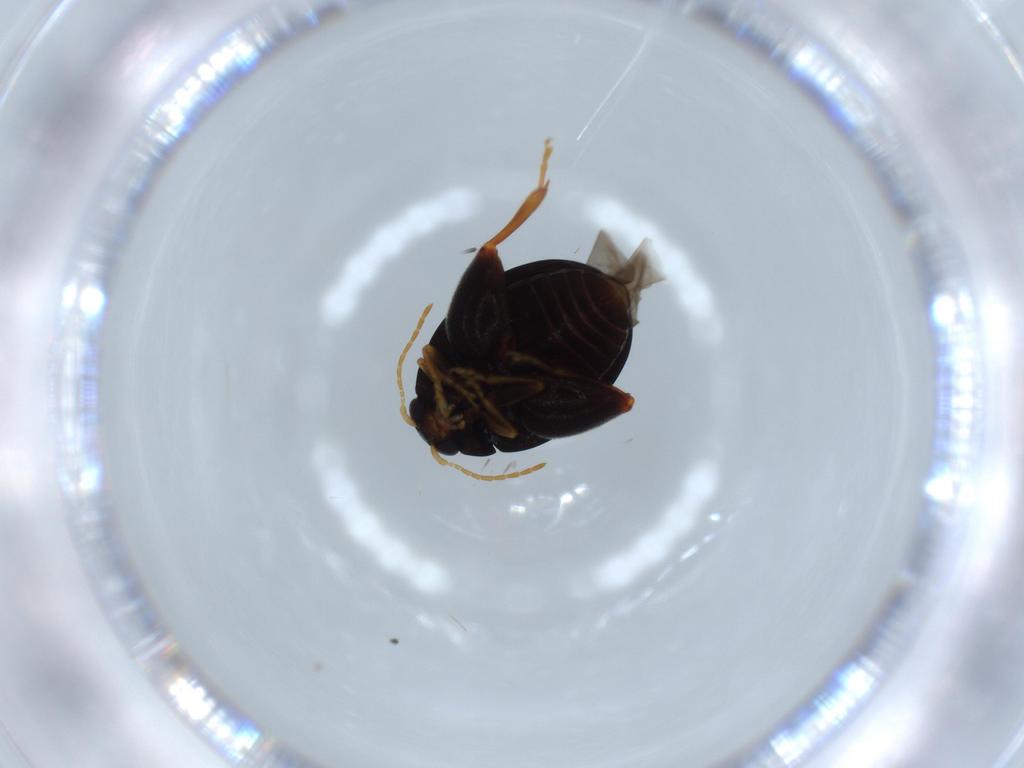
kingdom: Animalia
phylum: Arthropoda
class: Insecta
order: Coleoptera
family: Chrysomelidae
